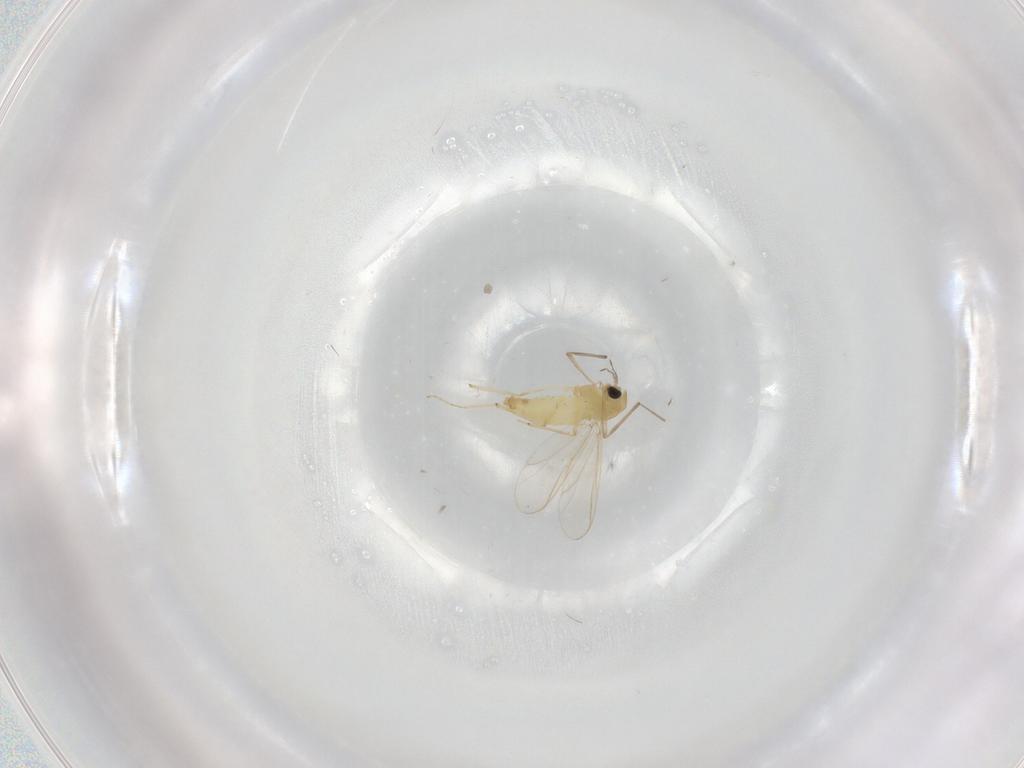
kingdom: Animalia
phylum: Arthropoda
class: Insecta
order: Diptera
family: Chironomidae
